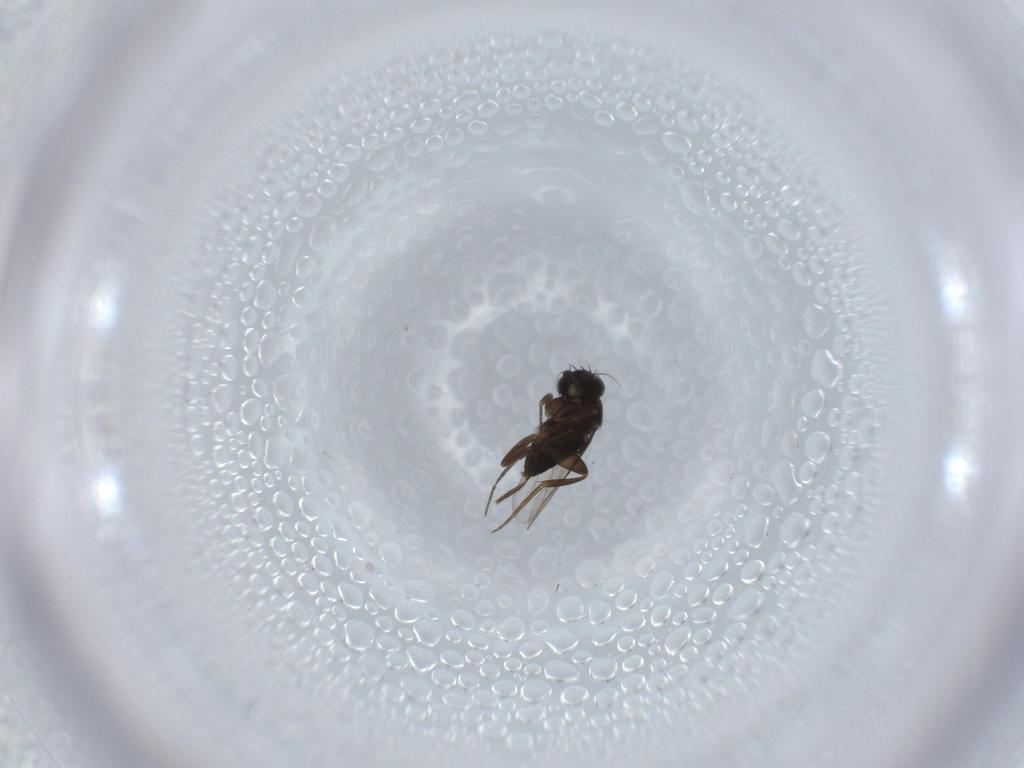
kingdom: Animalia
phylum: Arthropoda
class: Insecta
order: Diptera
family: Phoridae
